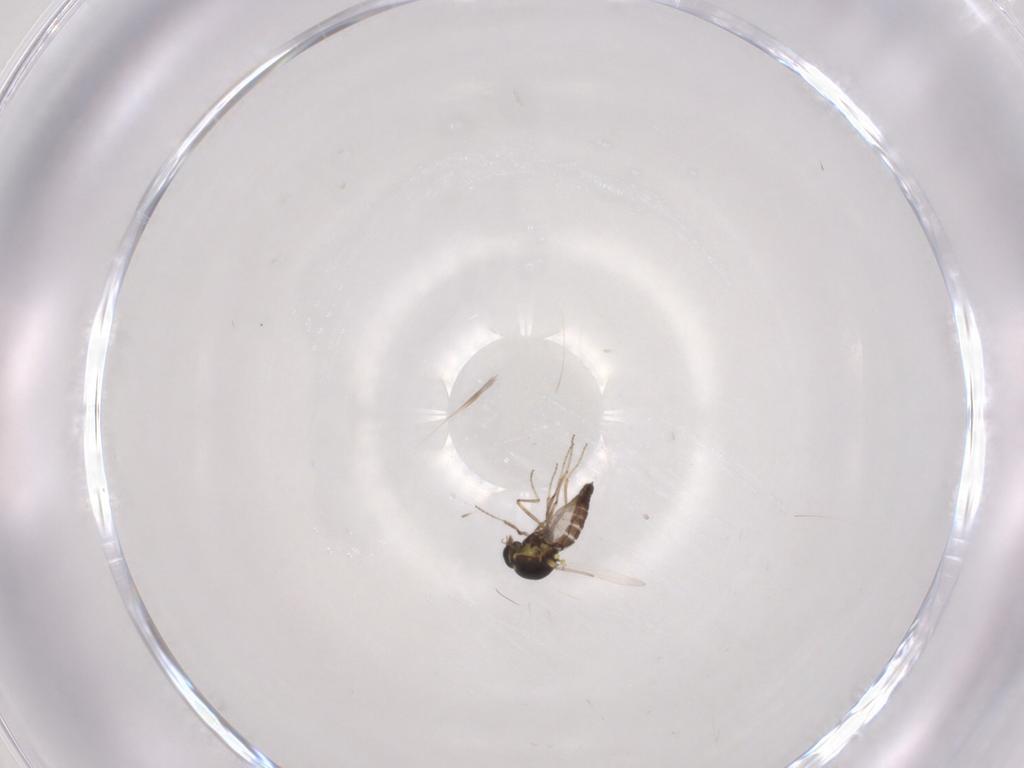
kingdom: Animalia
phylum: Arthropoda
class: Insecta
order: Diptera
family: Ceratopogonidae
